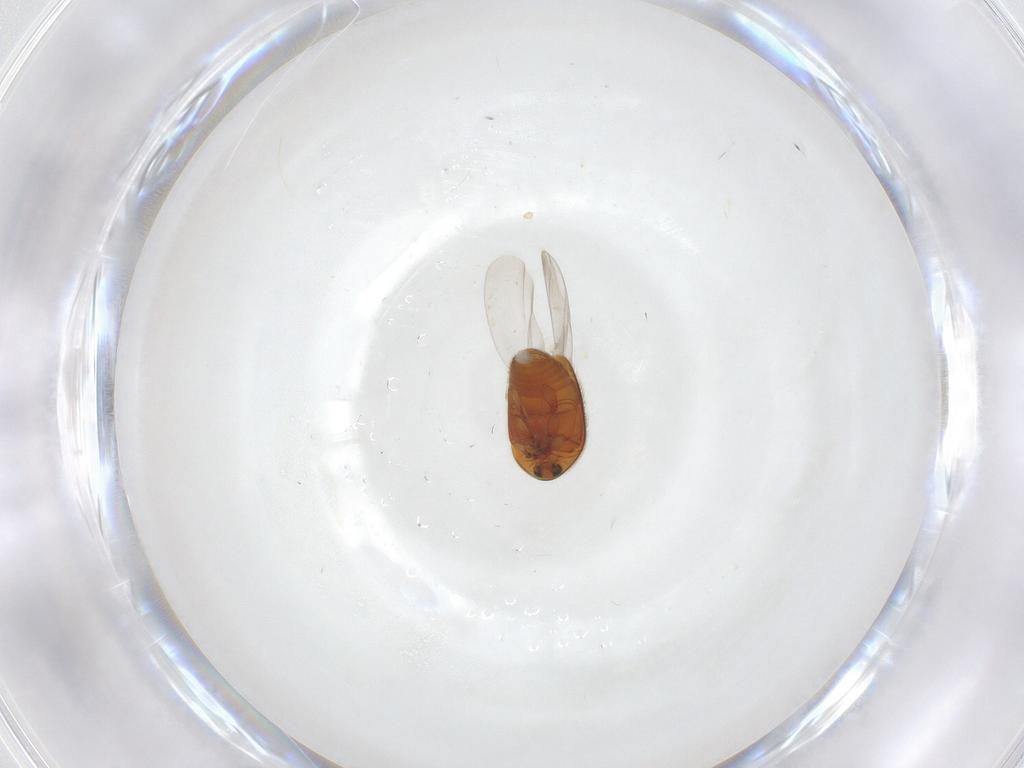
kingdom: Animalia
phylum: Arthropoda
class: Insecta
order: Coleoptera
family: Corylophidae
